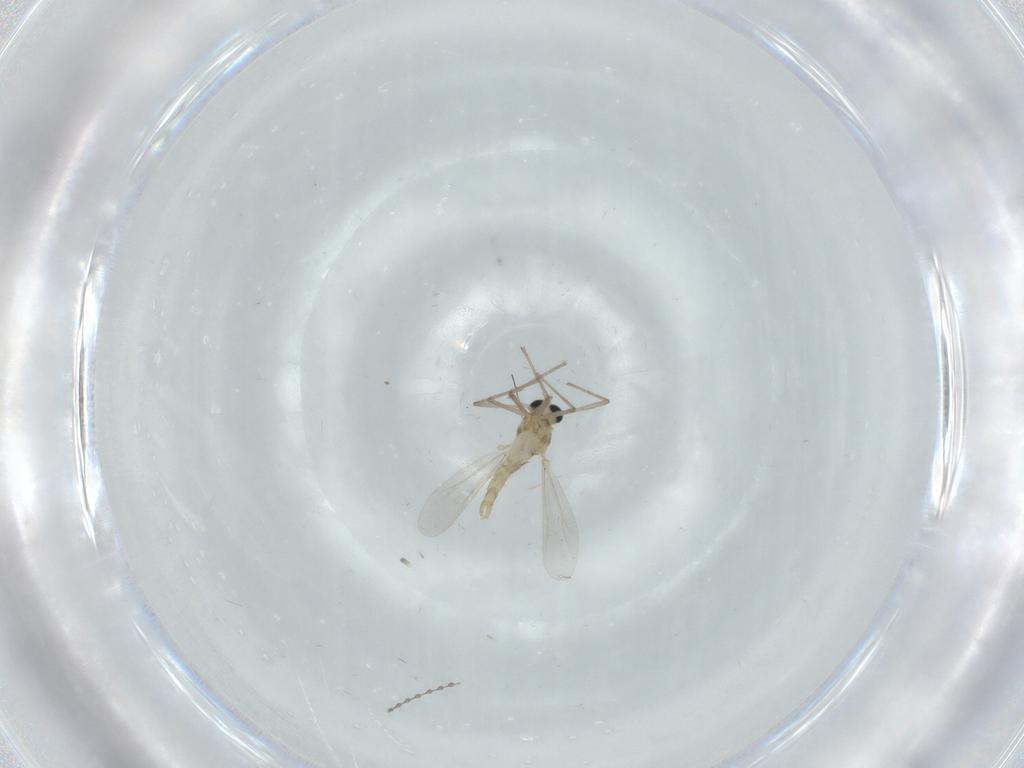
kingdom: Animalia
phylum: Arthropoda
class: Insecta
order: Diptera
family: Cecidomyiidae
